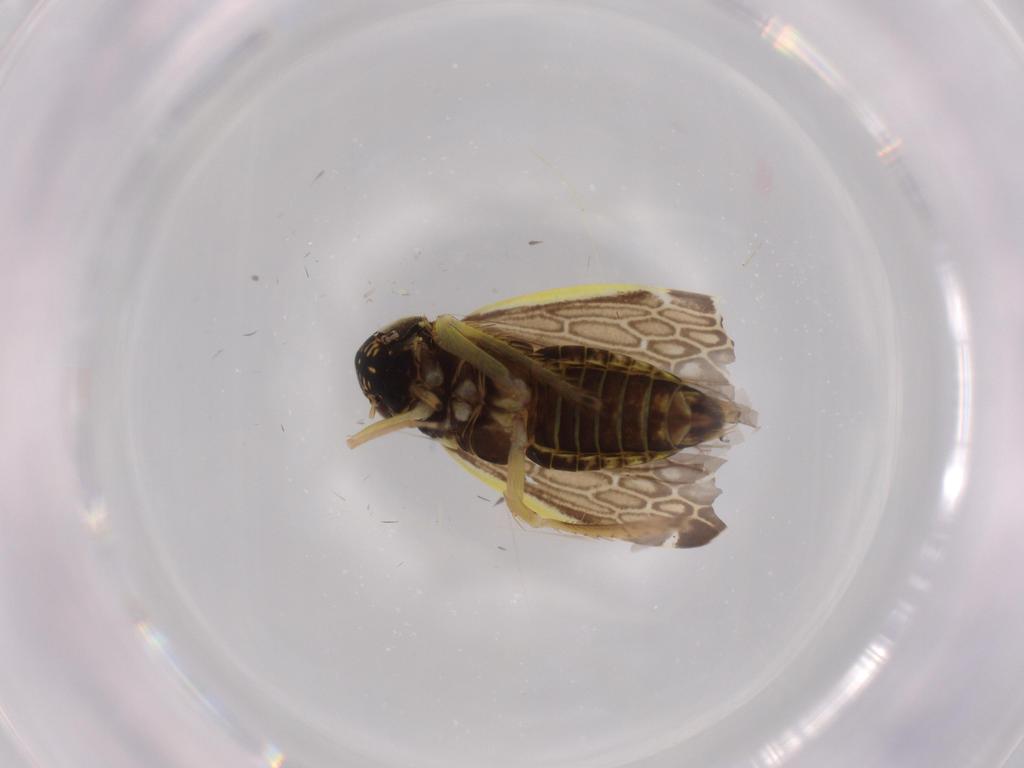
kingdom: Animalia
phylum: Arthropoda
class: Insecta
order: Hemiptera
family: Cicadellidae
